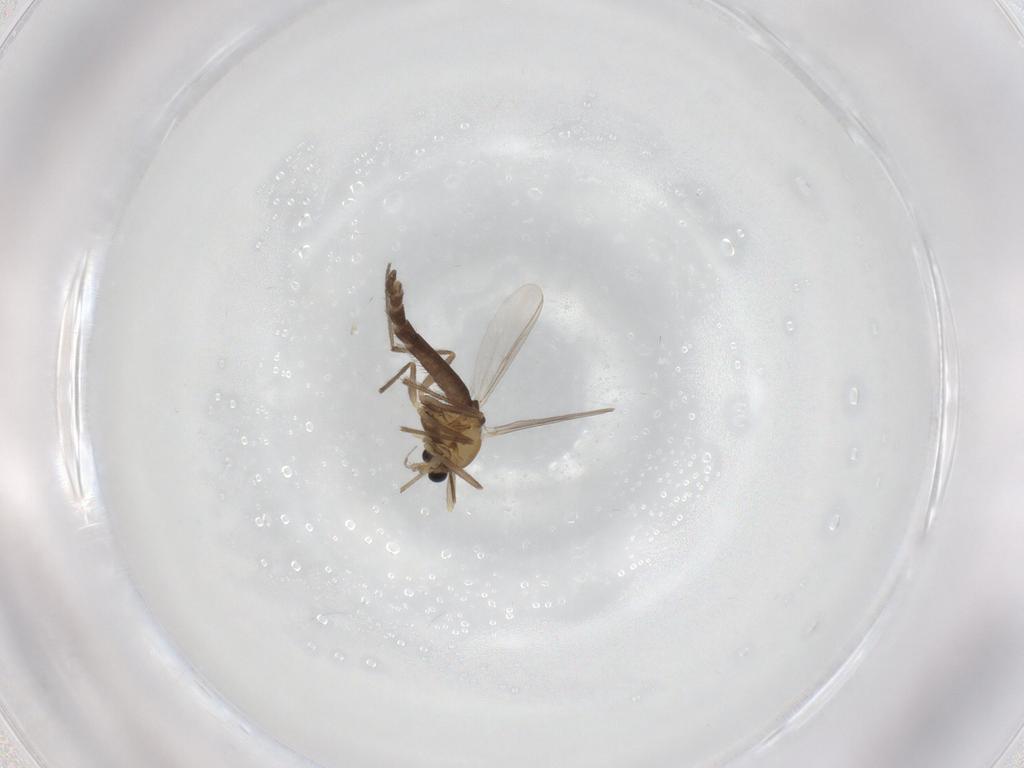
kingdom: Animalia
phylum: Arthropoda
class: Insecta
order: Diptera
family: Chironomidae
